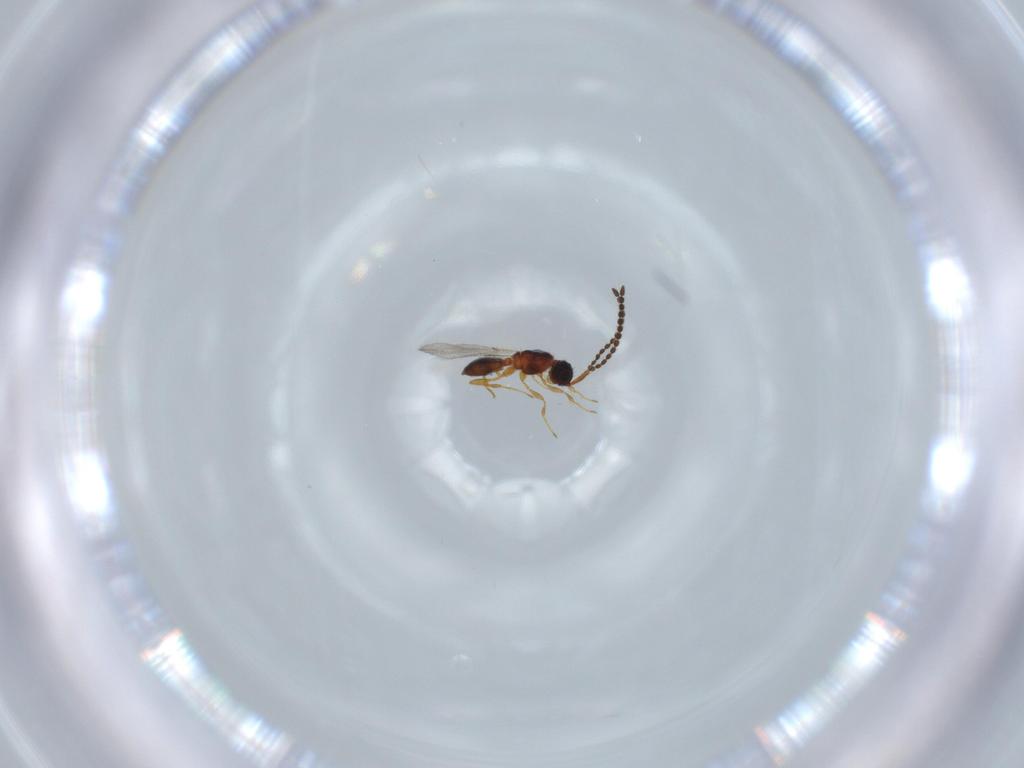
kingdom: Animalia
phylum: Arthropoda
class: Insecta
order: Hymenoptera
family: Diapriidae
